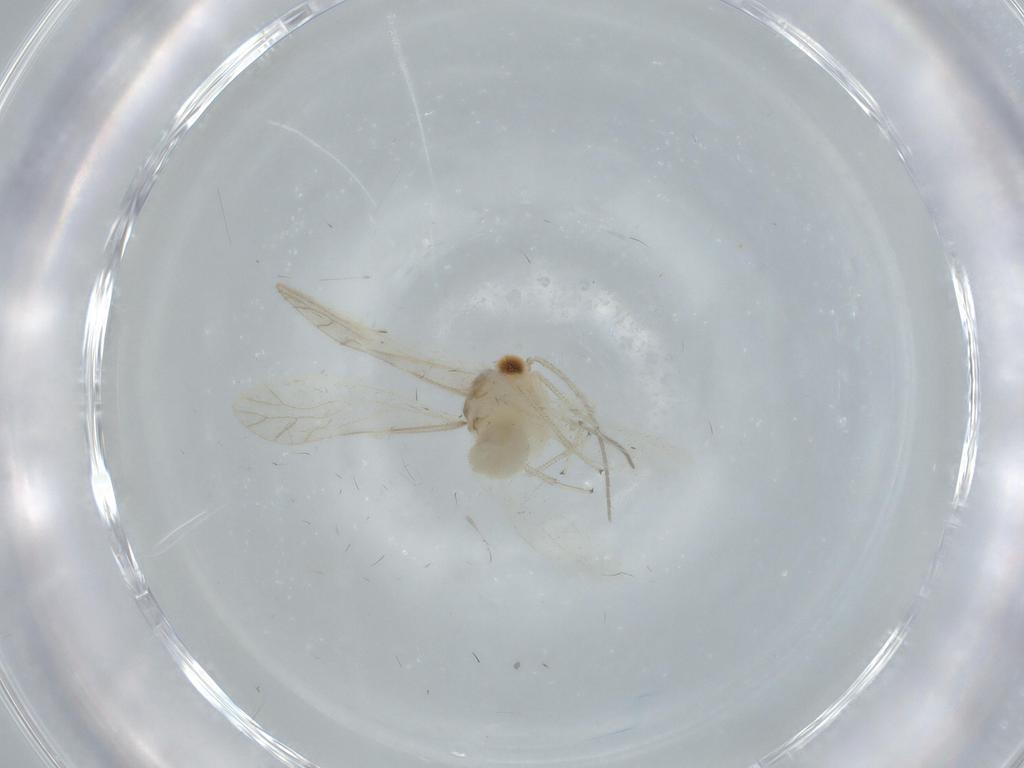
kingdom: Animalia
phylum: Arthropoda
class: Insecta
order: Psocodea
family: Caeciliusidae
